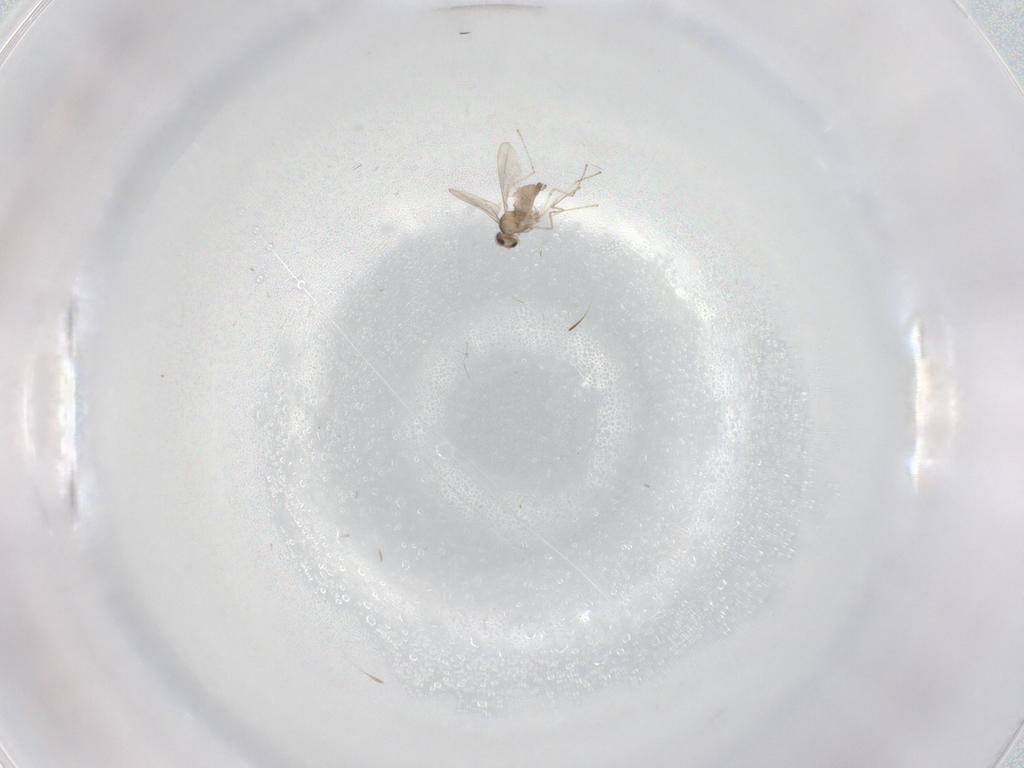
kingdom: Animalia
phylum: Arthropoda
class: Insecta
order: Diptera
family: Cecidomyiidae
